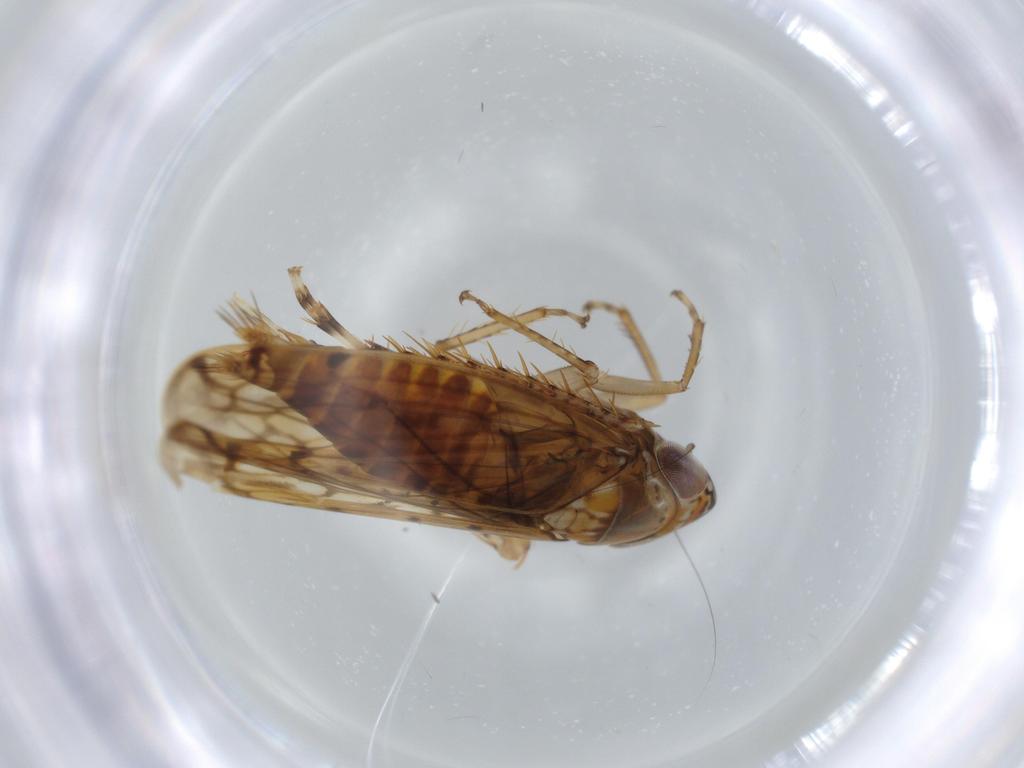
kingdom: Animalia
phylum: Arthropoda
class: Insecta
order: Hemiptera
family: Cicadellidae
